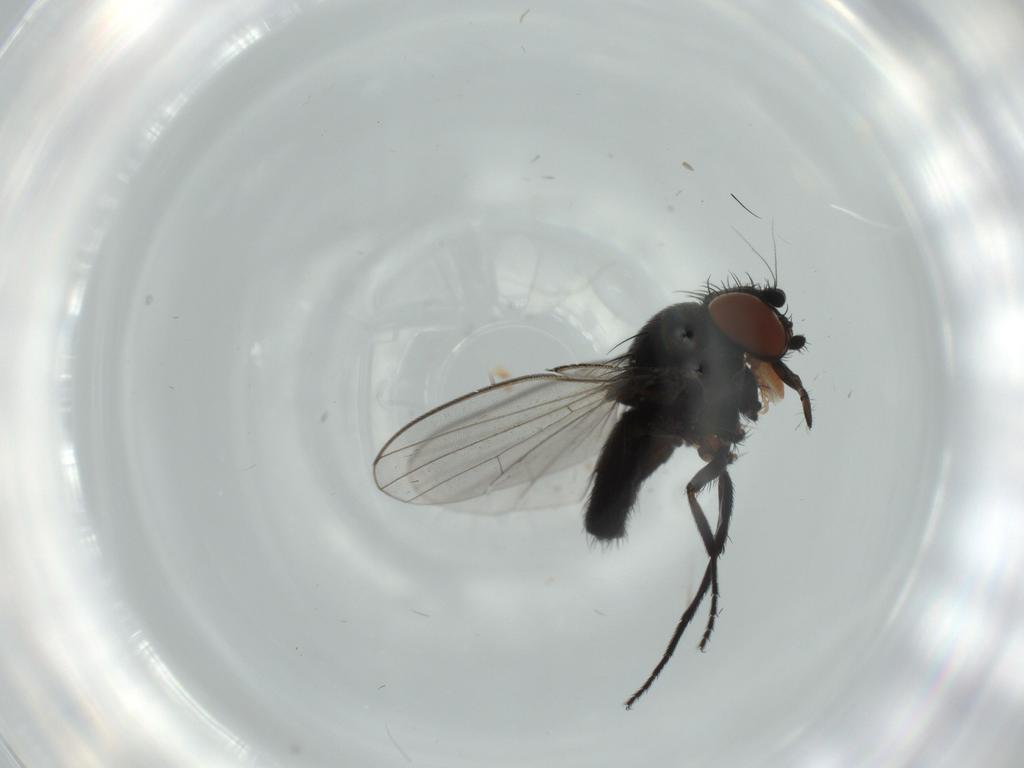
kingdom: Animalia
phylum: Arthropoda
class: Insecta
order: Diptera
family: Milichiidae
